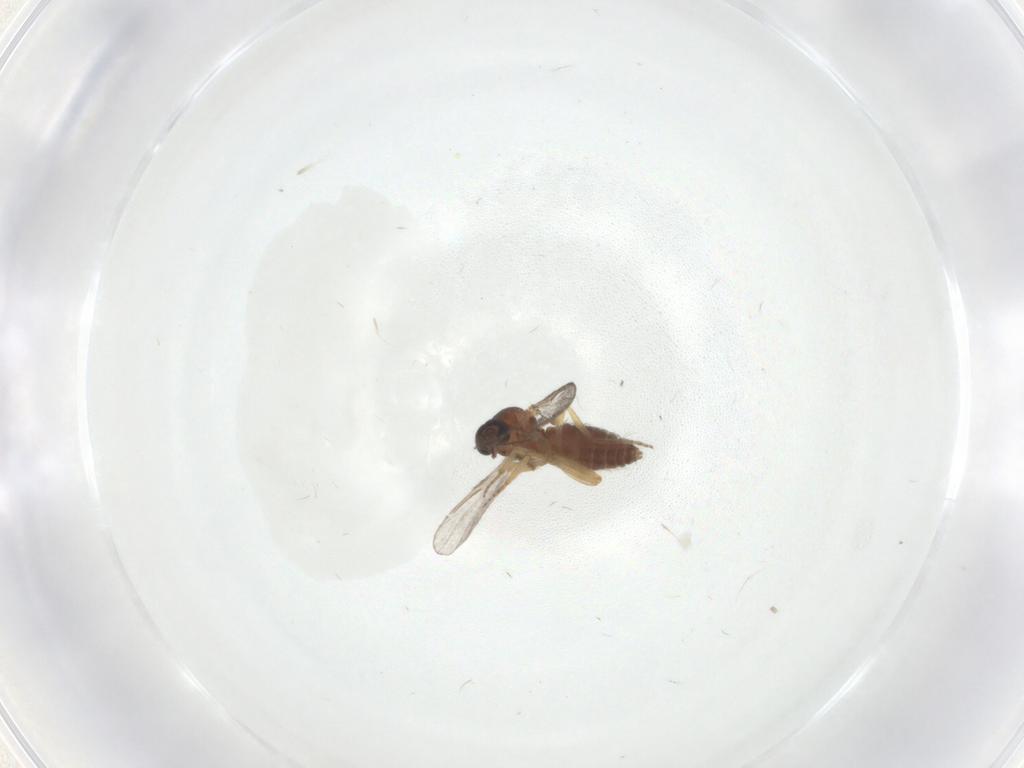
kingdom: Animalia
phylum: Arthropoda
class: Insecta
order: Diptera
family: Ceratopogonidae
